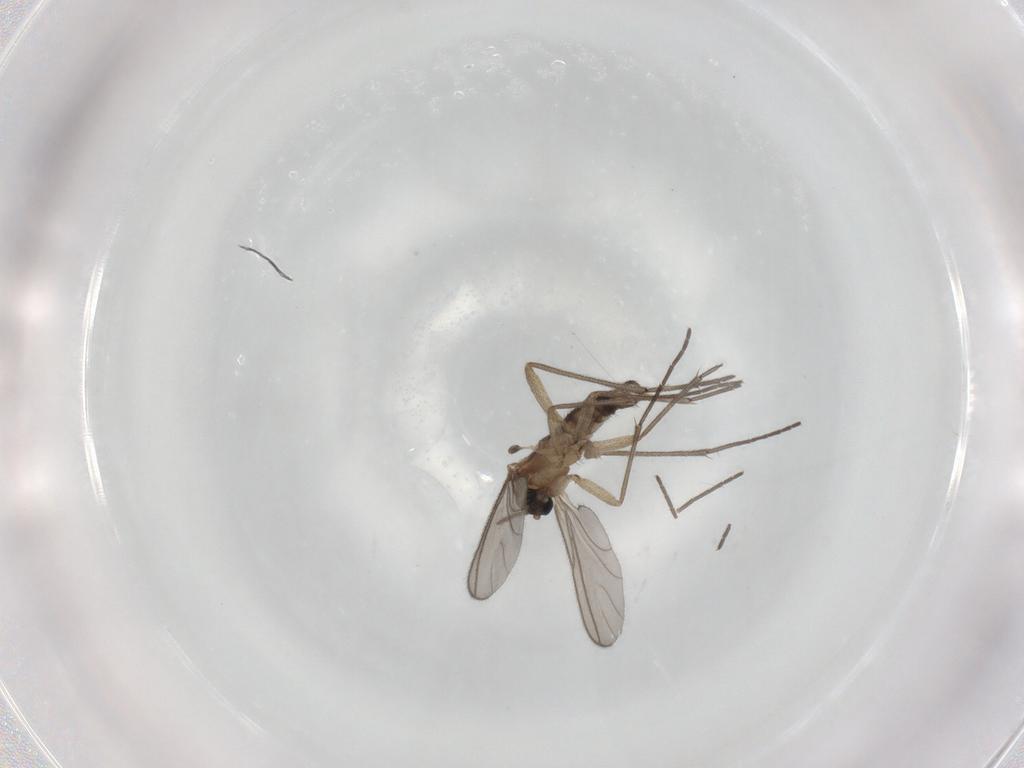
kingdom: Animalia
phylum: Arthropoda
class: Insecta
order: Diptera
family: Sciaridae
